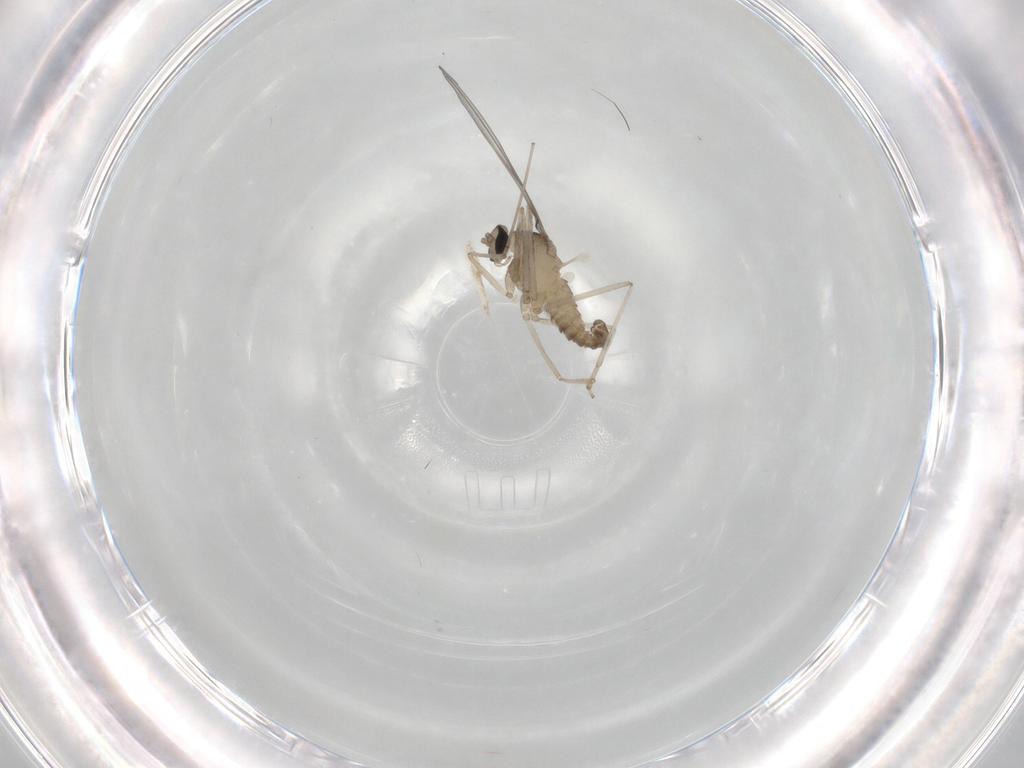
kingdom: Animalia
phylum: Arthropoda
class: Insecta
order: Diptera
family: Cecidomyiidae
